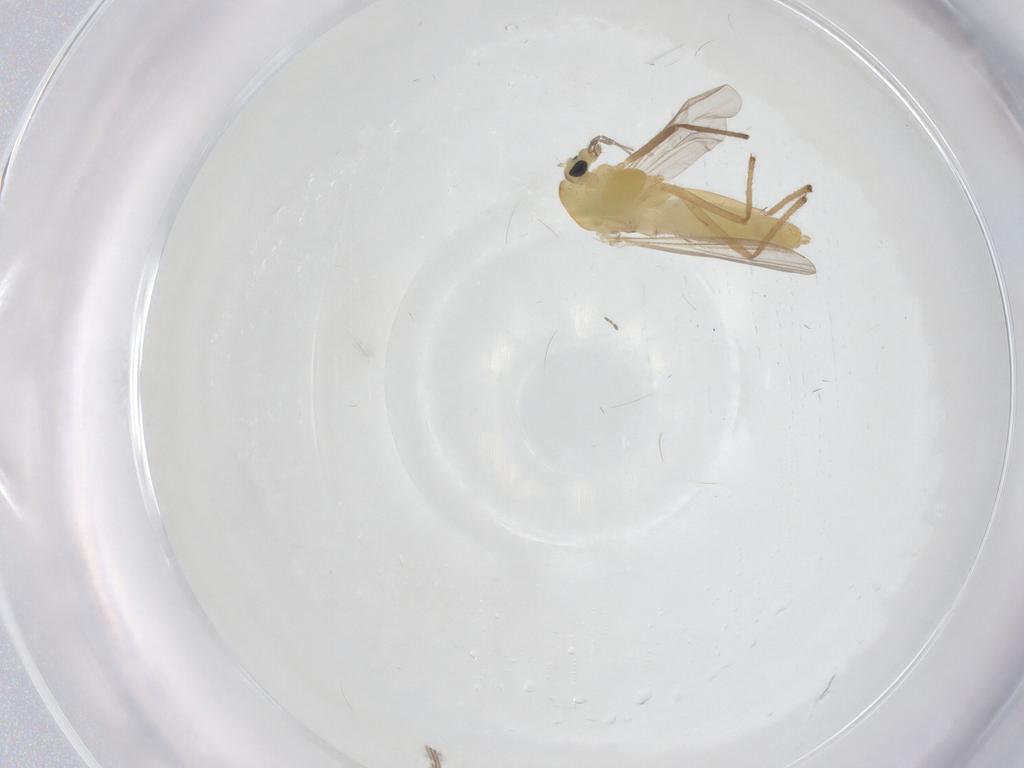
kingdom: Animalia
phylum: Arthropoda
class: Insecta
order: Diptera
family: Chironomidae
